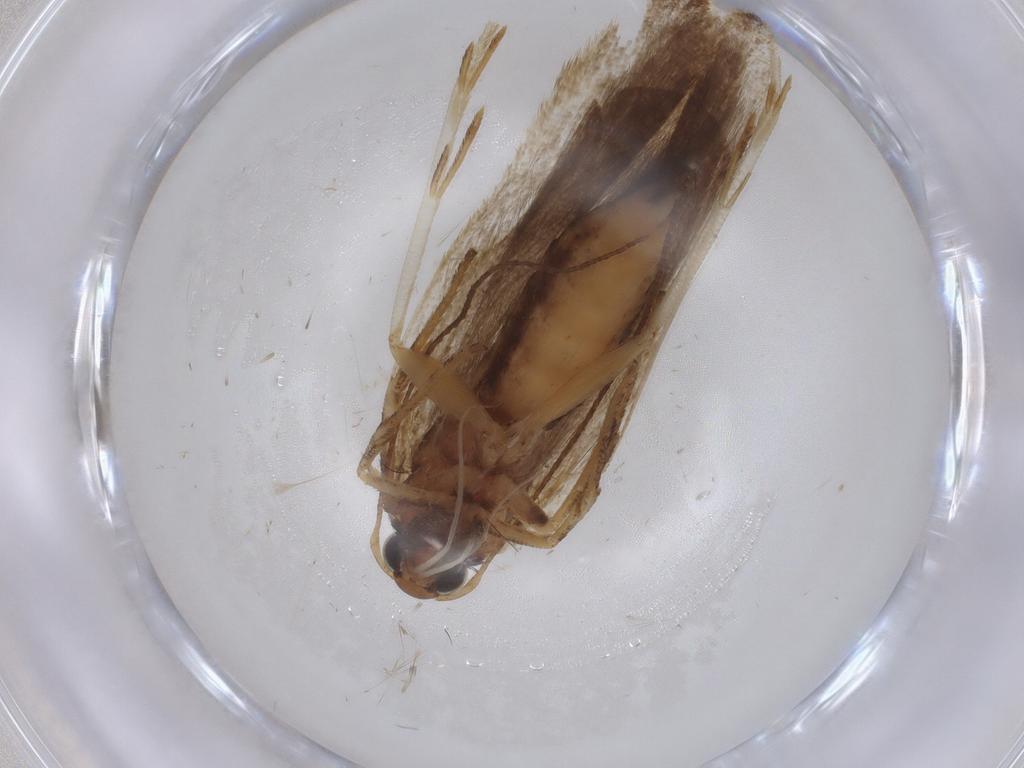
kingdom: Animalia
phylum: Arthropoda
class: Insecta
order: Lepidoptera
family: Gelechiidae
